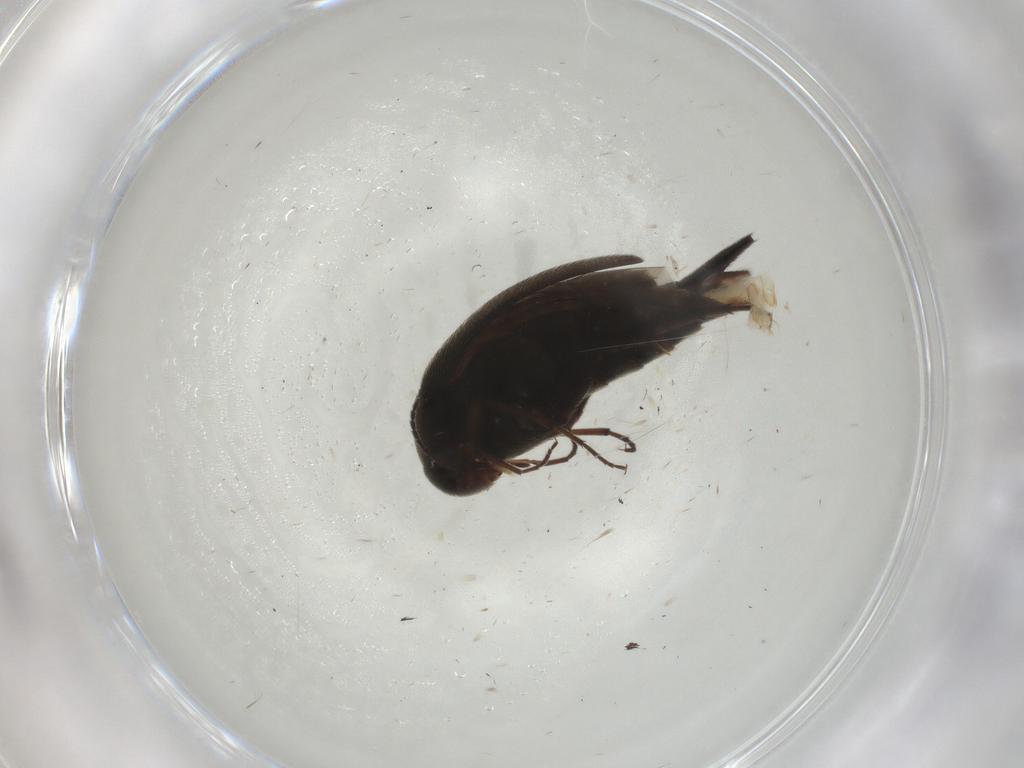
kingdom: Animalia
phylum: Arthropoda
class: Insecta
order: Coleoptera
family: Mordellidae
